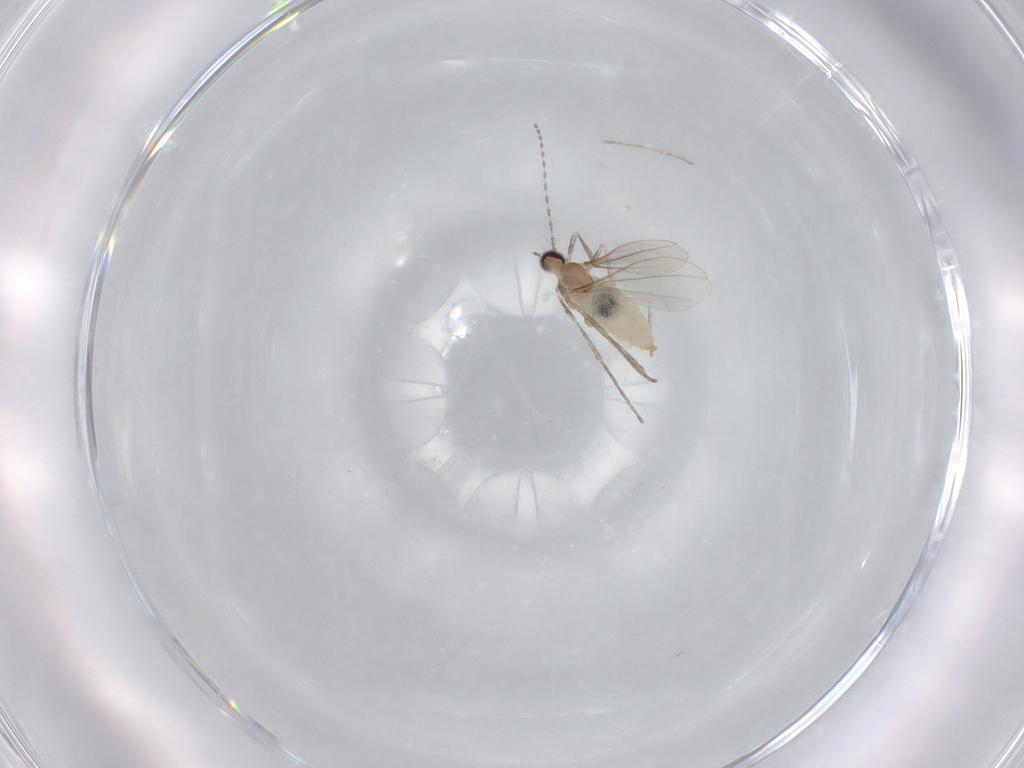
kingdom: Animalia
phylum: Arthropoda
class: Insecta
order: Diptera
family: Cecidomyiidae
